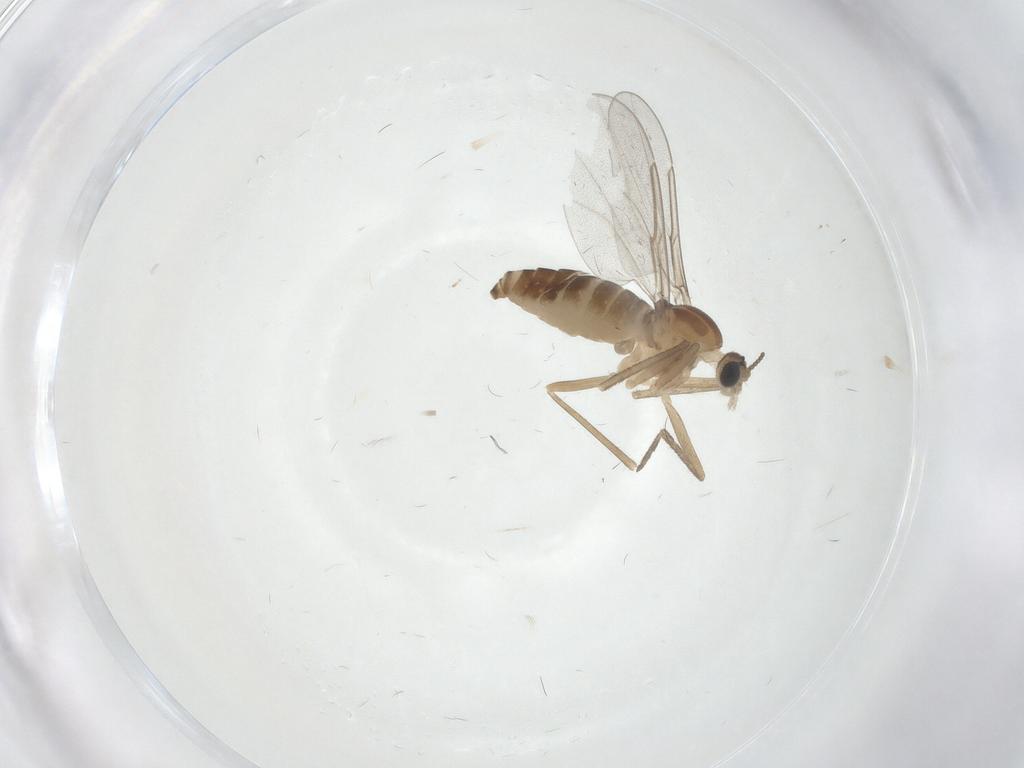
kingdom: Animalia
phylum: Arthropoda
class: Insecta
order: Diptera
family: Cecidomyiidae
